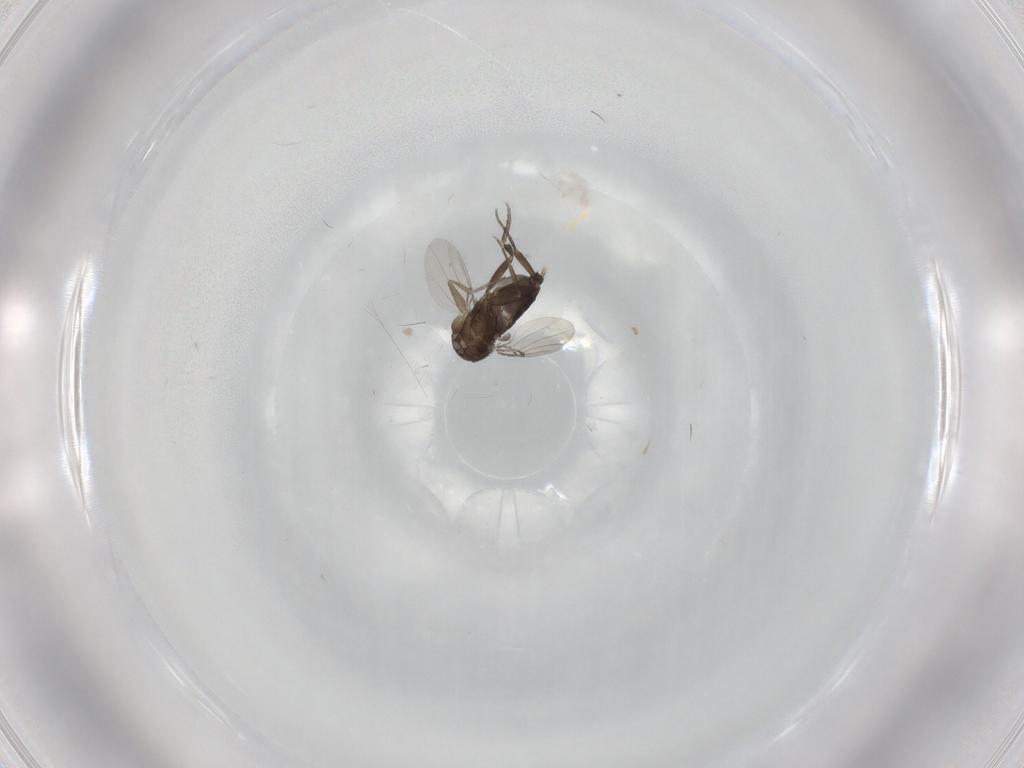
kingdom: Animalia
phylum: Arthropoda
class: Insecta
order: Diptera
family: Phoridae
